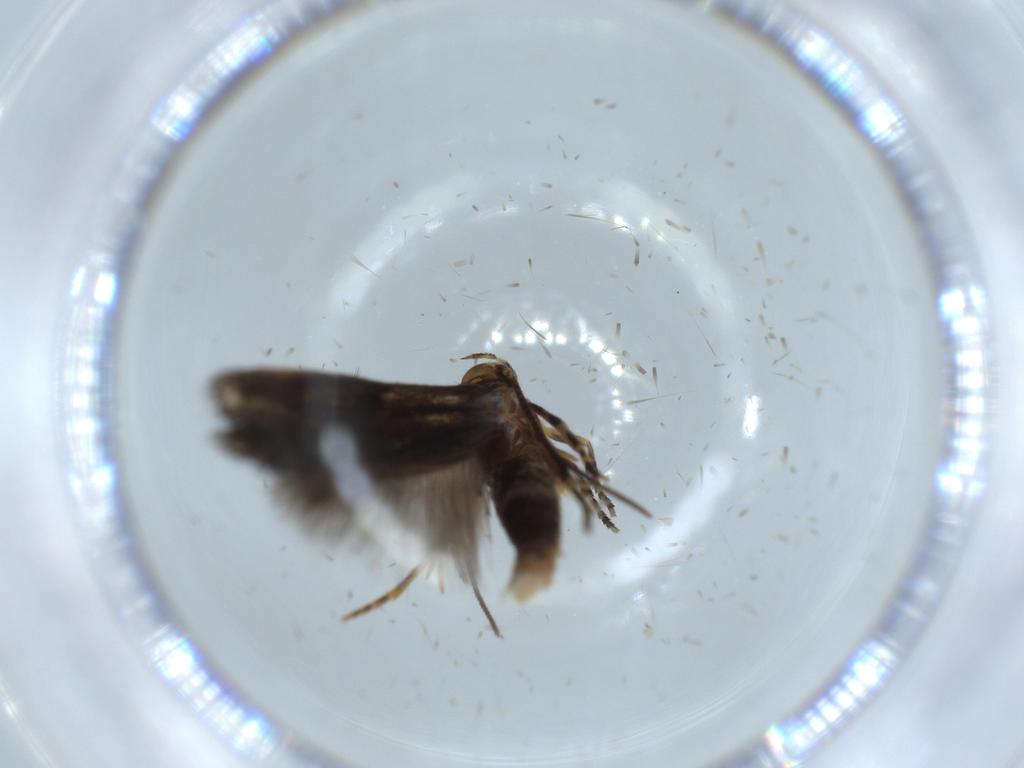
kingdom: Animalia
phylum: Arthropoda
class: Insecta
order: Lepidoptera
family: Elachistidae
